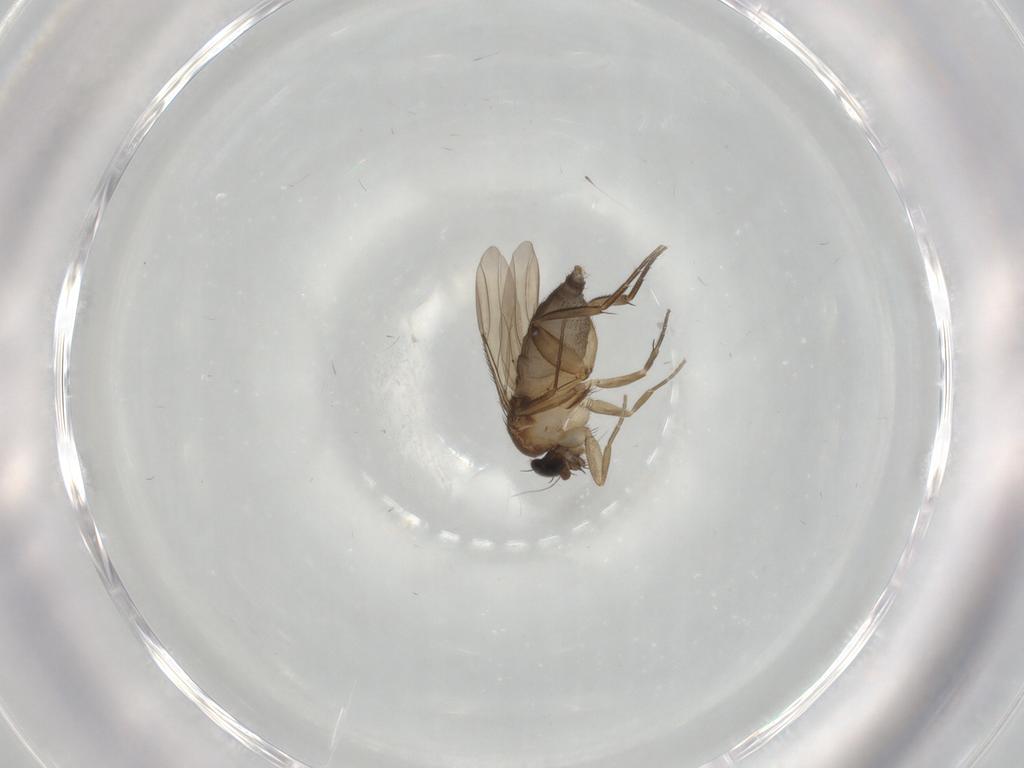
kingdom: Animalia
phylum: Arthropoda
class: Insecta
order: Diptera
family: Phoridae
